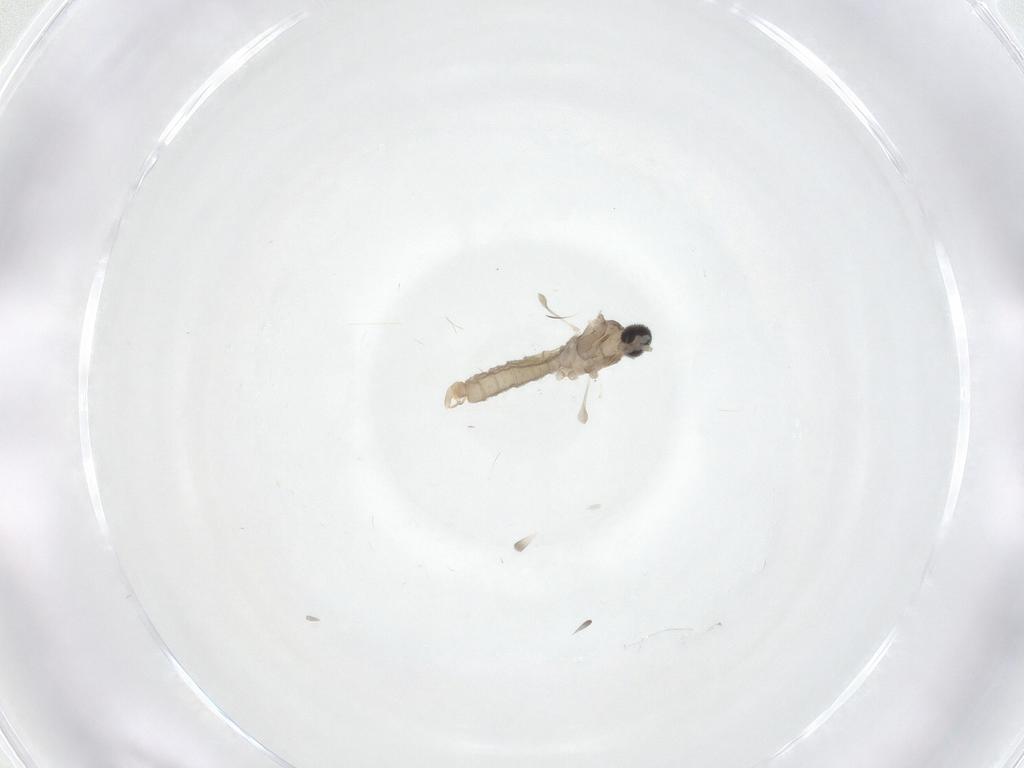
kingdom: Animalia
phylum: Arthropoda
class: Insecta
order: Diptera
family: Cecidomyiidae
